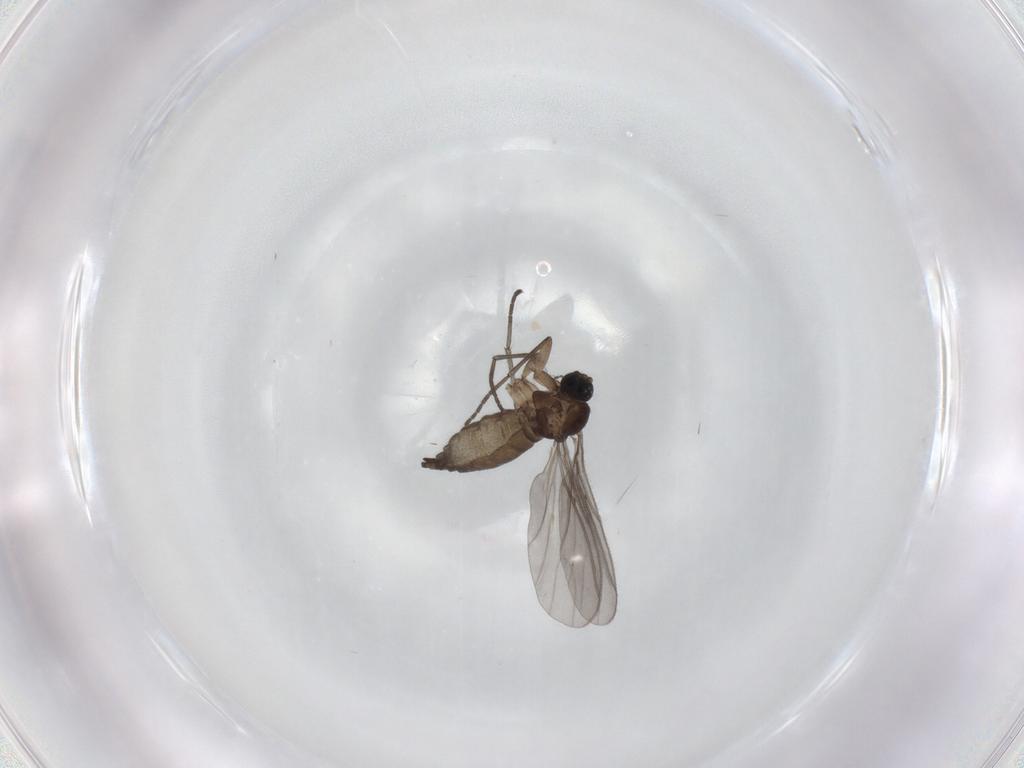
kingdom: Animalia
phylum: Arthropoda
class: Insecta
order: Diptera
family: Sciaridae
